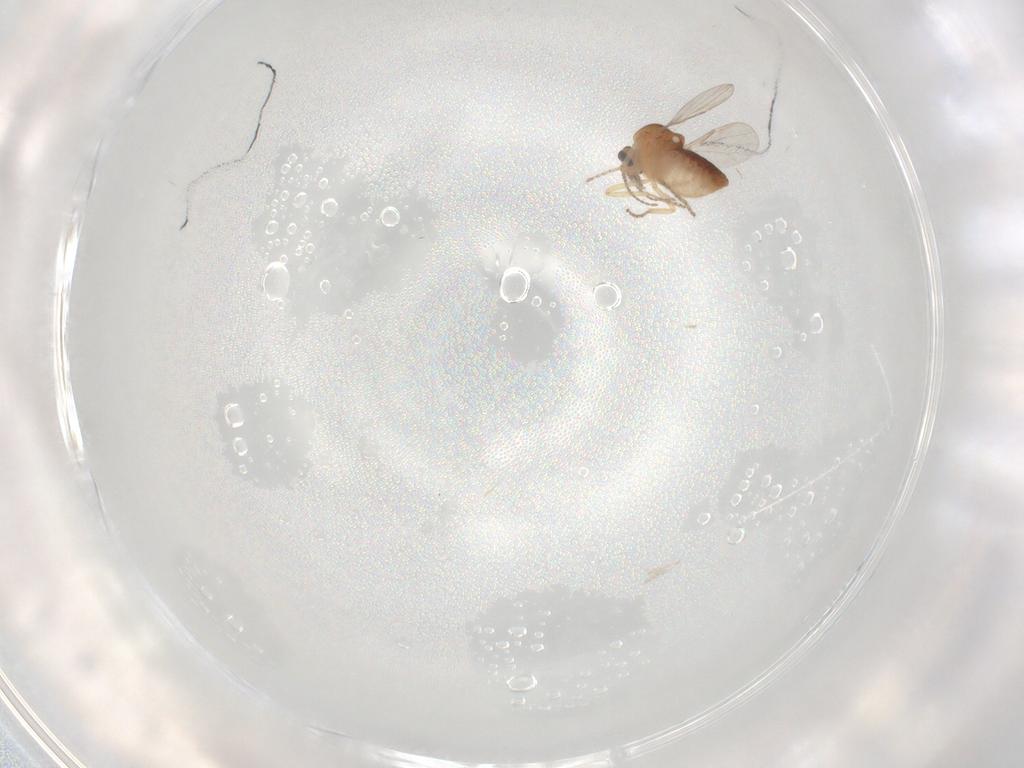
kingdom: Animalia
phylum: Arthropoda
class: Insecta
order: Diptera
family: Ceratopogonidae
